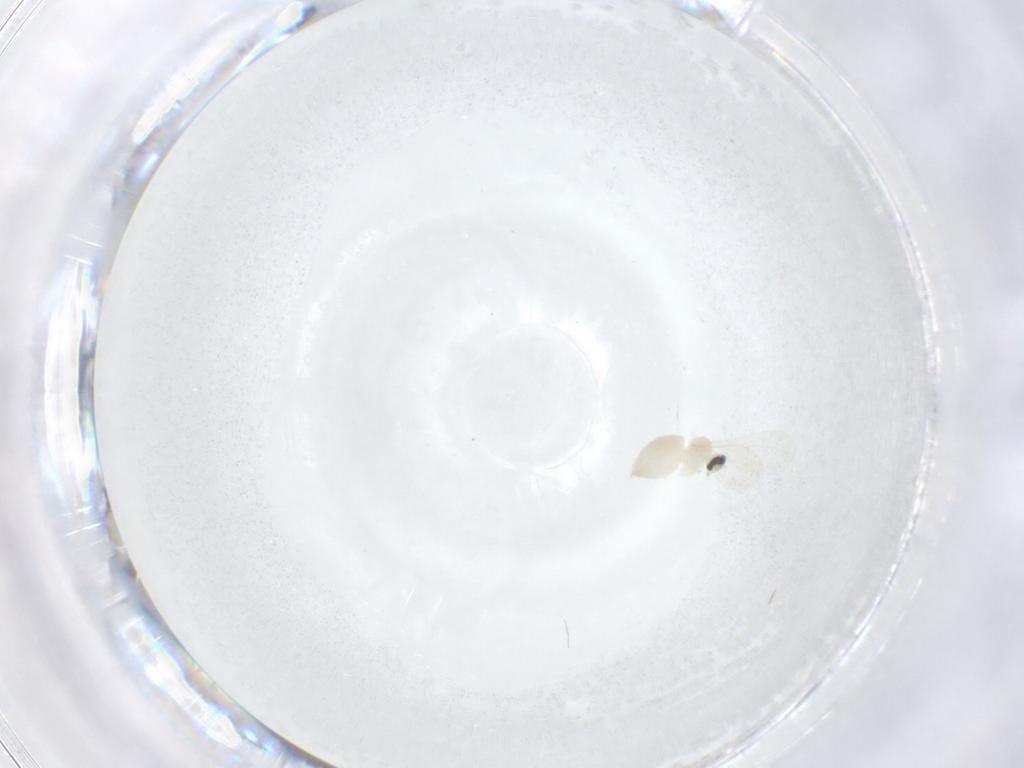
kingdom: Animalia
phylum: Arthropoda
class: Insecta
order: Diptera
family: Cecidomyiidae
